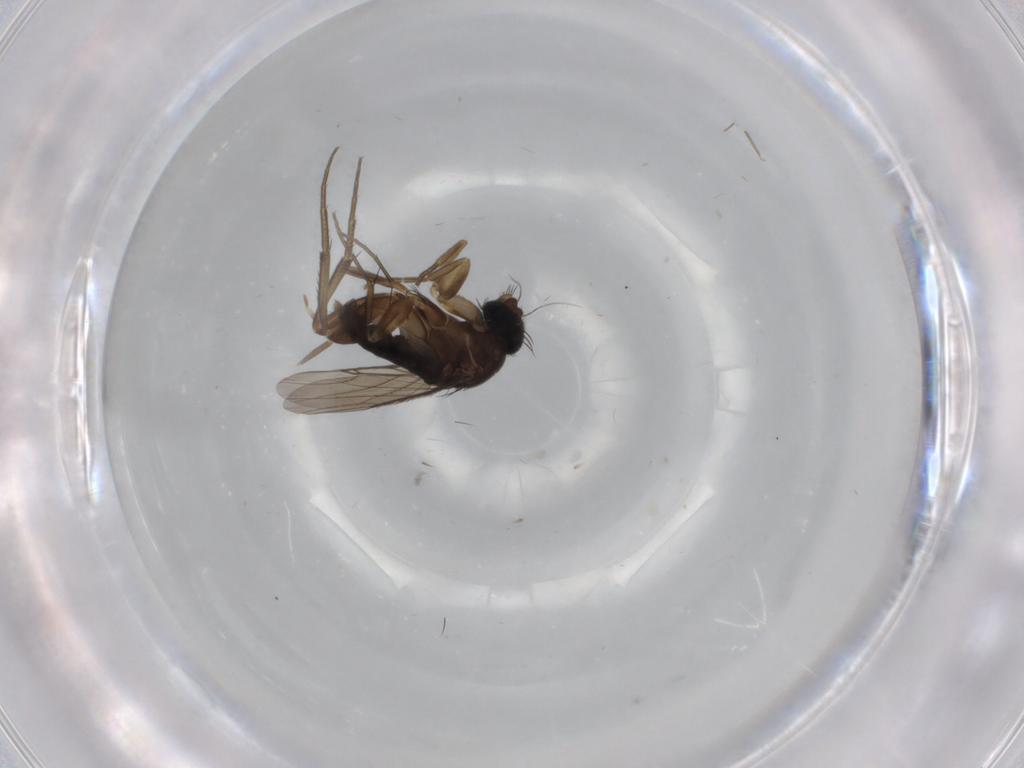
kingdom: Animalia
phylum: Arthropoda
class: Insecta
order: Diptera
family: Phoridae
